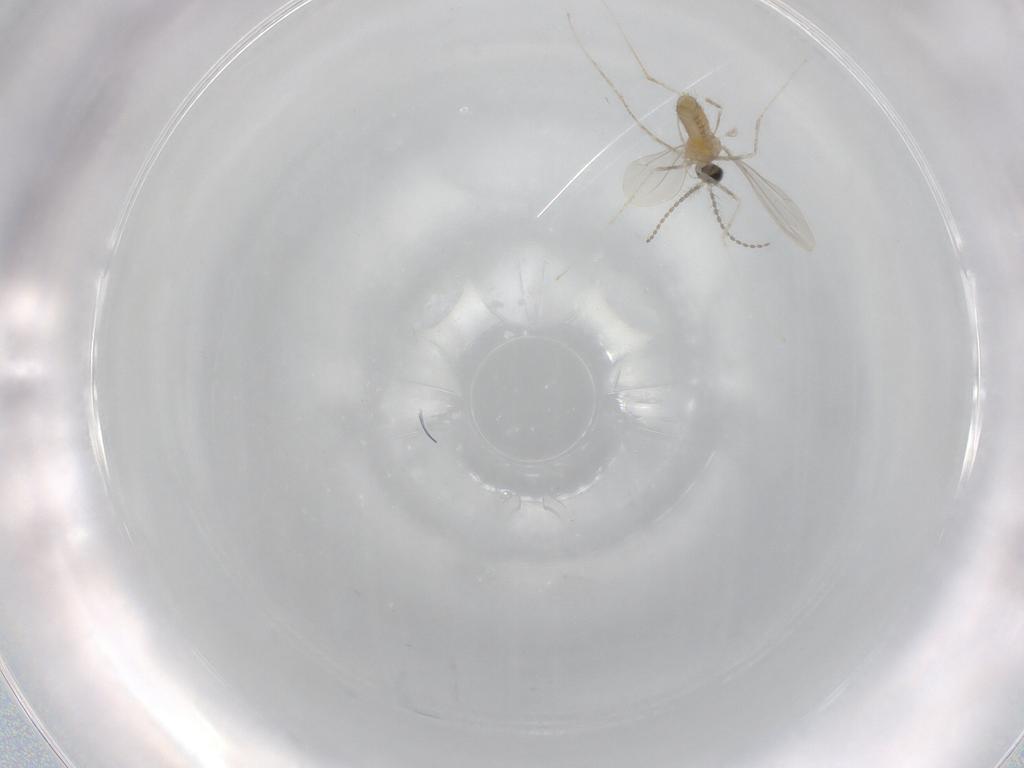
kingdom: Animalia
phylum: Arthropoda
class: Insecta
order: Diptera
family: Cecidomyiidae
